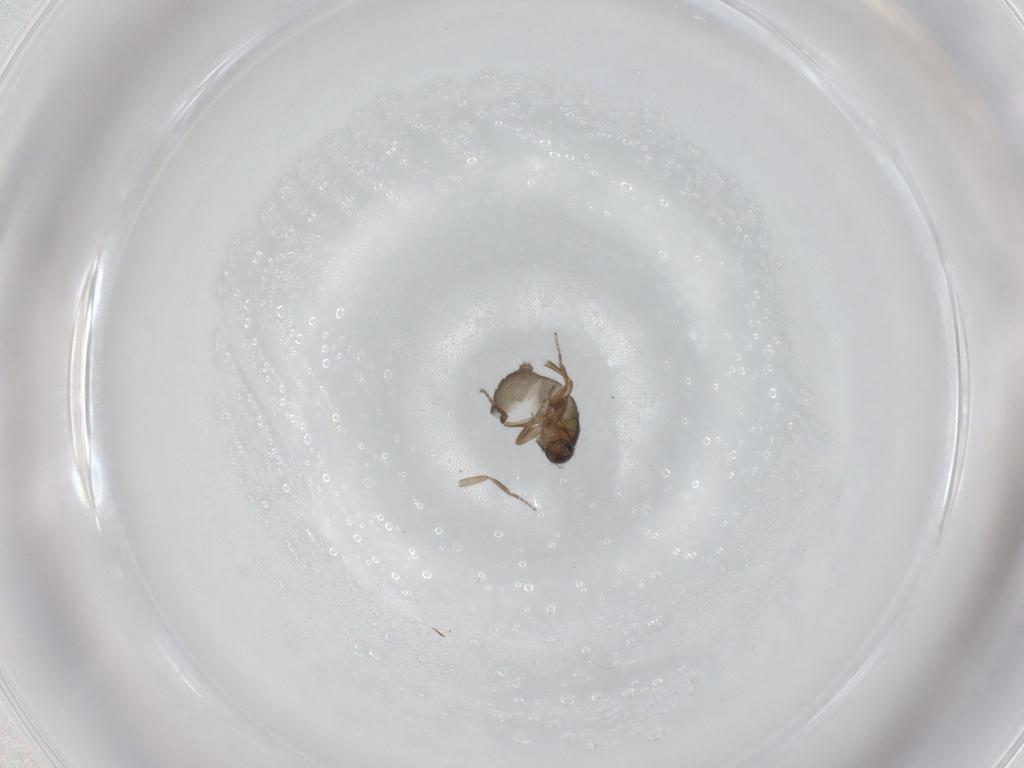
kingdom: Animalia
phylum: Arthropoda
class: Insecta
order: Diptera
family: Phoridae
